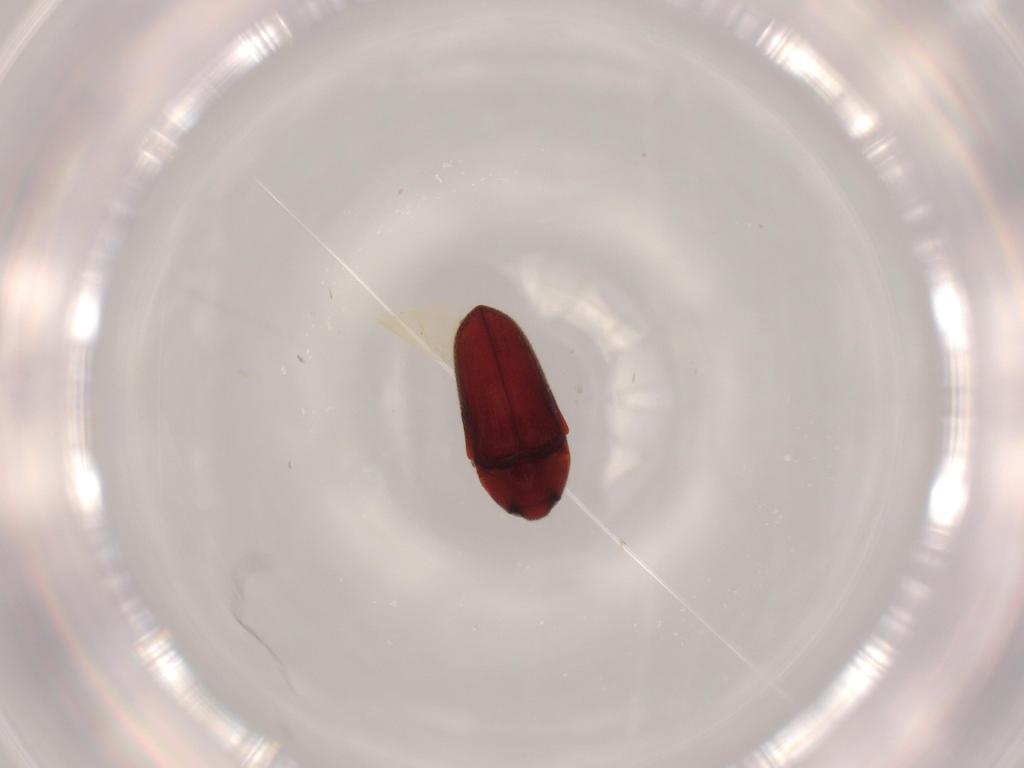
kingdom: Animalia
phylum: Arthropoda
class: Insecta
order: Coleoptera
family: Throscidae
